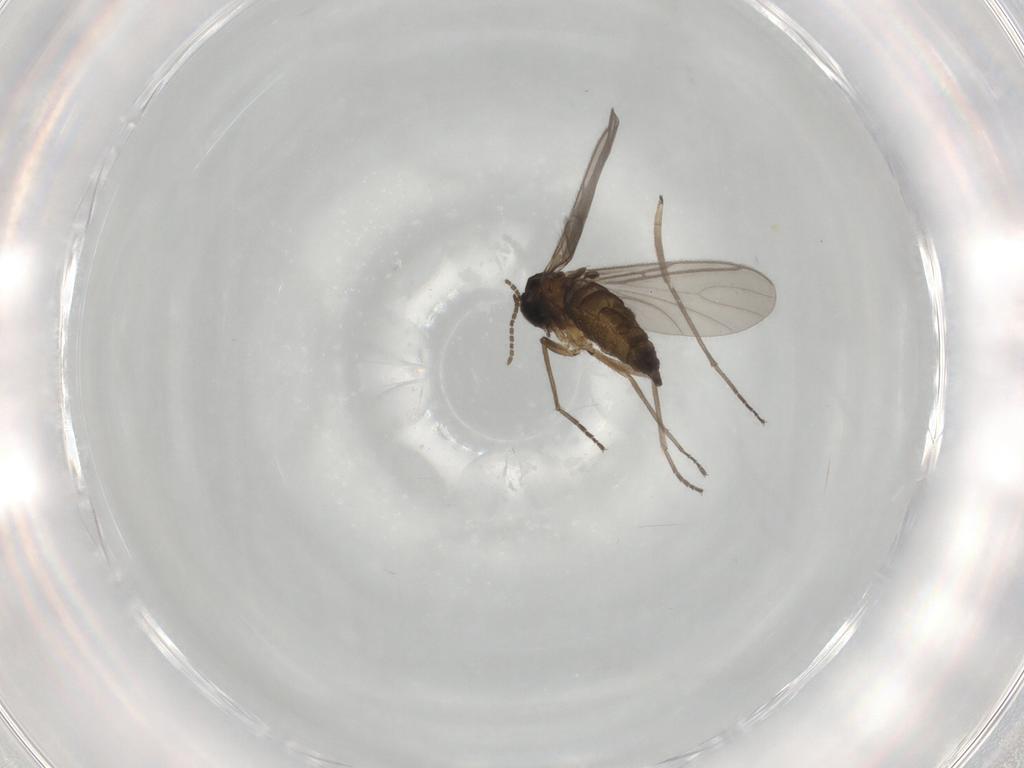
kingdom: Animalia
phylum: Arthropoda
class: Insecta
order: Diptera
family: Sciaridae
